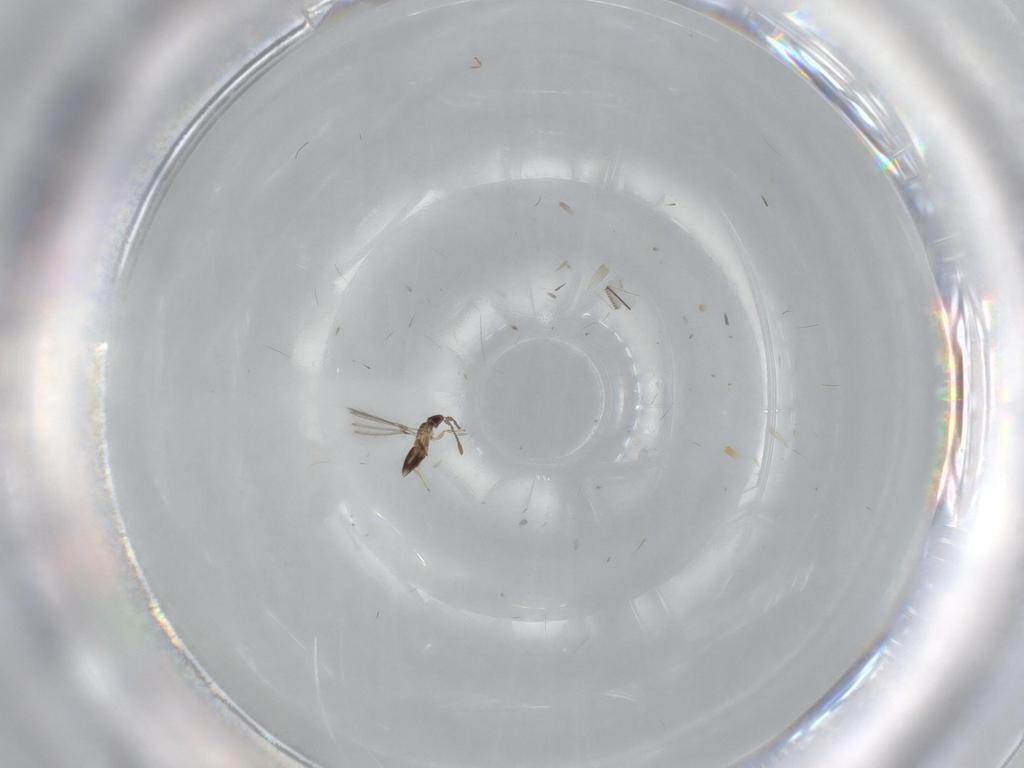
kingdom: Animalia
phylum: Arthropoda
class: Insecta
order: Hymenoptera
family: Mymaridae
